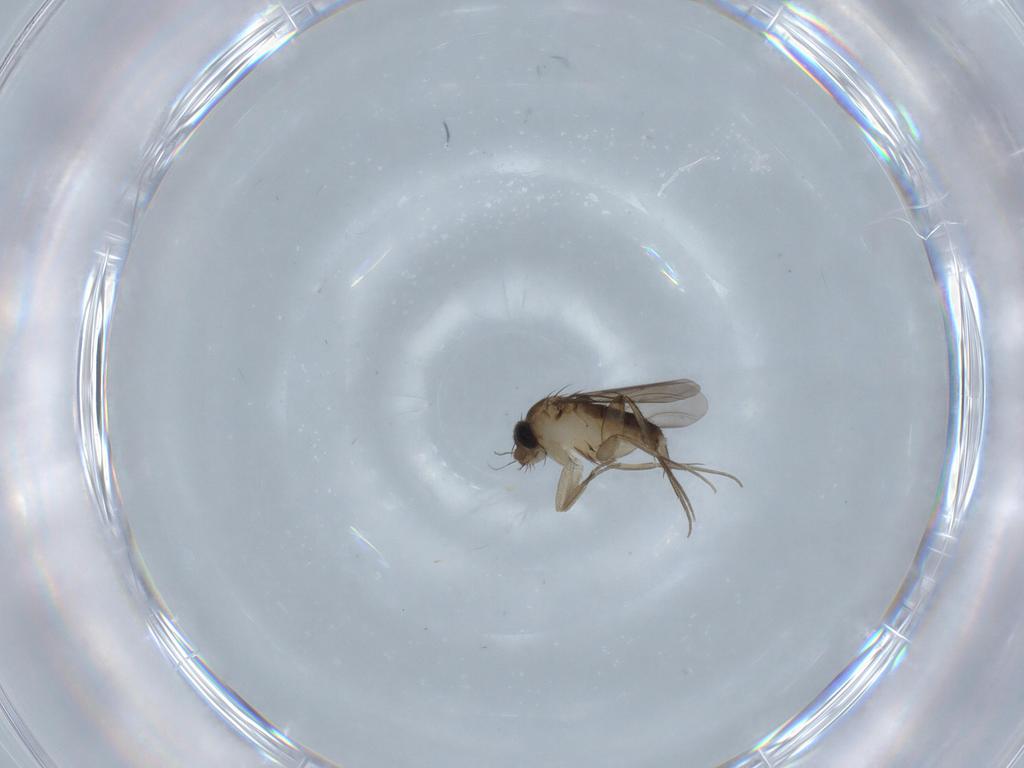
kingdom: Animalia
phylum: Arthropoda
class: Insecta
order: Diptera
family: Phoridae
